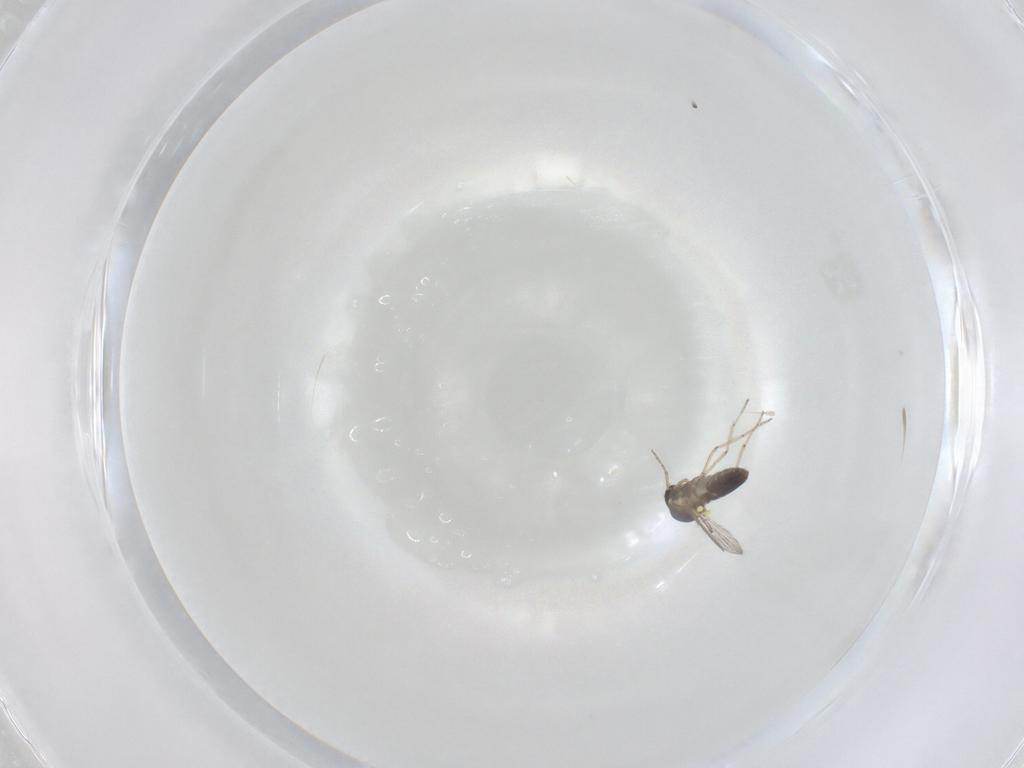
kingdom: Animalia
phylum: Arthropoda
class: Insecta
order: Diptera
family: Ceratopogonidae
